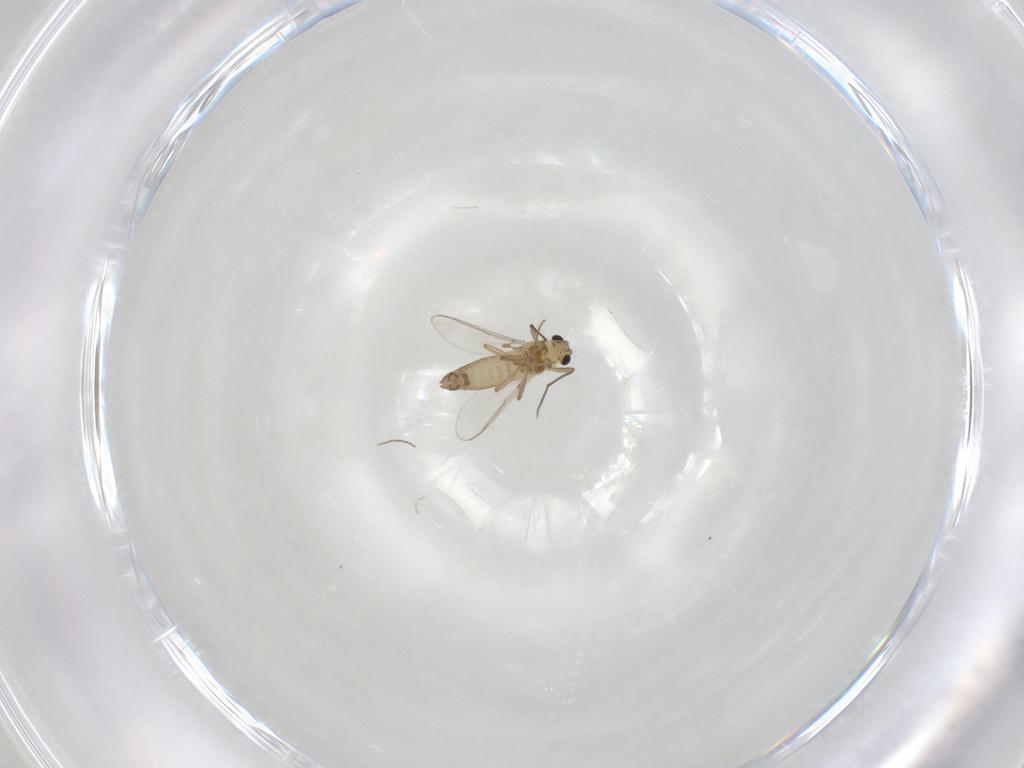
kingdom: Animalia
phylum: Arthropoda
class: Insecta
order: Diptera
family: Chironomidae
